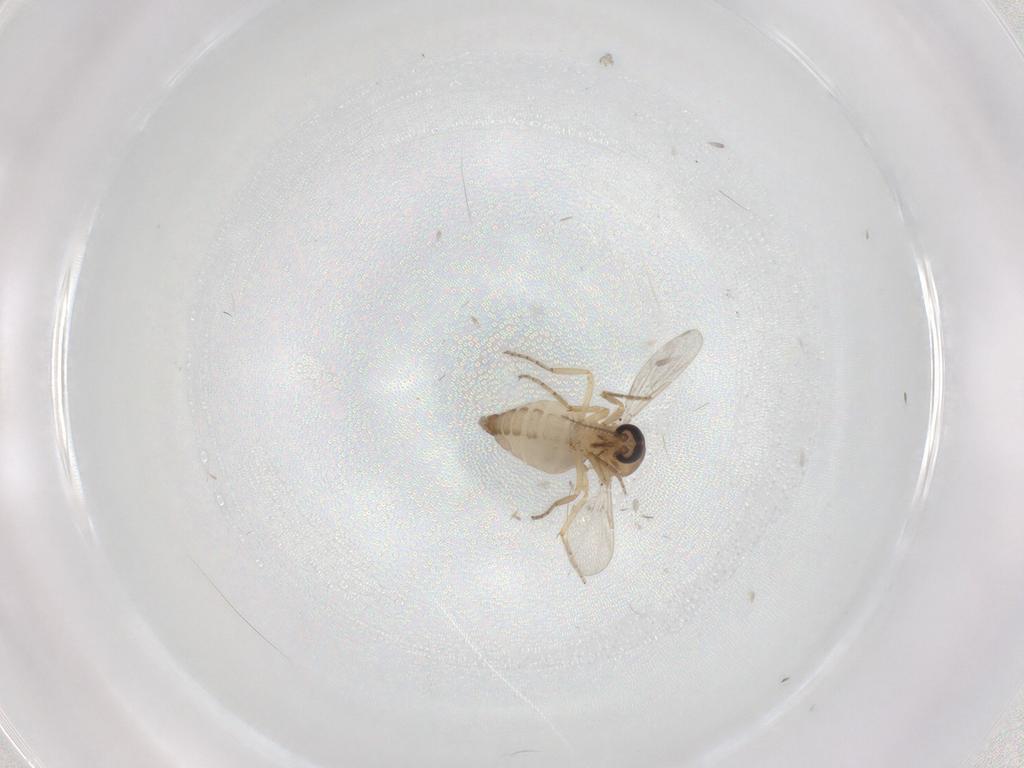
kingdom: Animalia
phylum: Arthropoda
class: Insecta
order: Diptera
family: Ceratopogonidae
